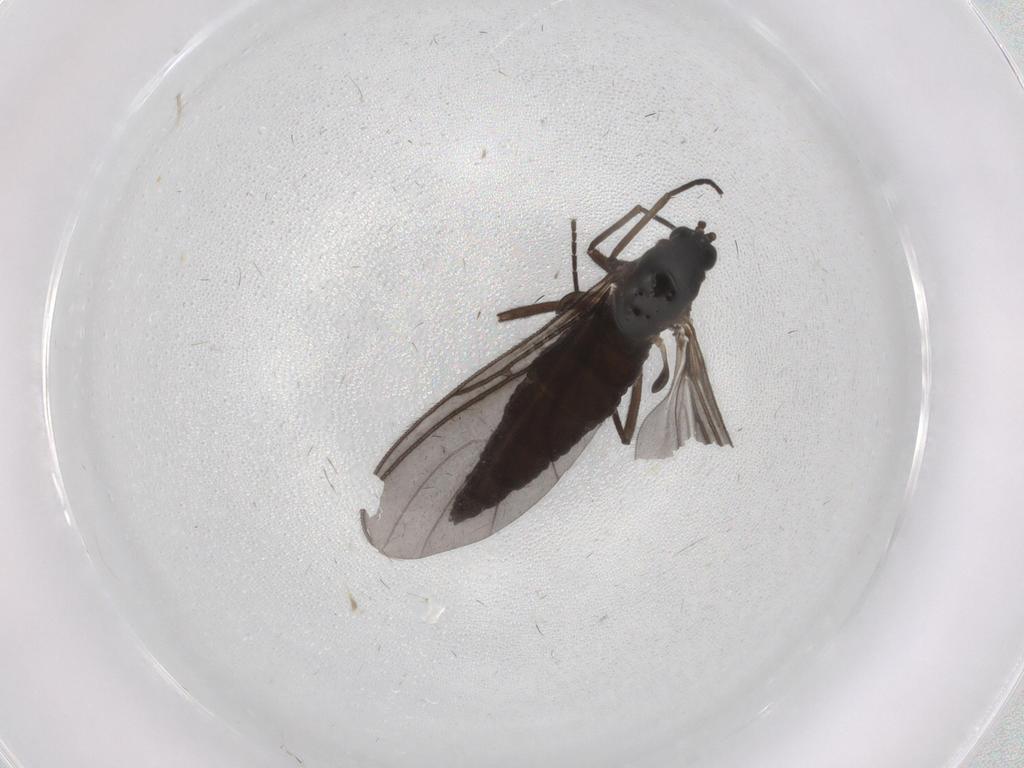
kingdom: Animalia
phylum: Arthropoda
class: Insecta
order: Diptera
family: Sciaridae
